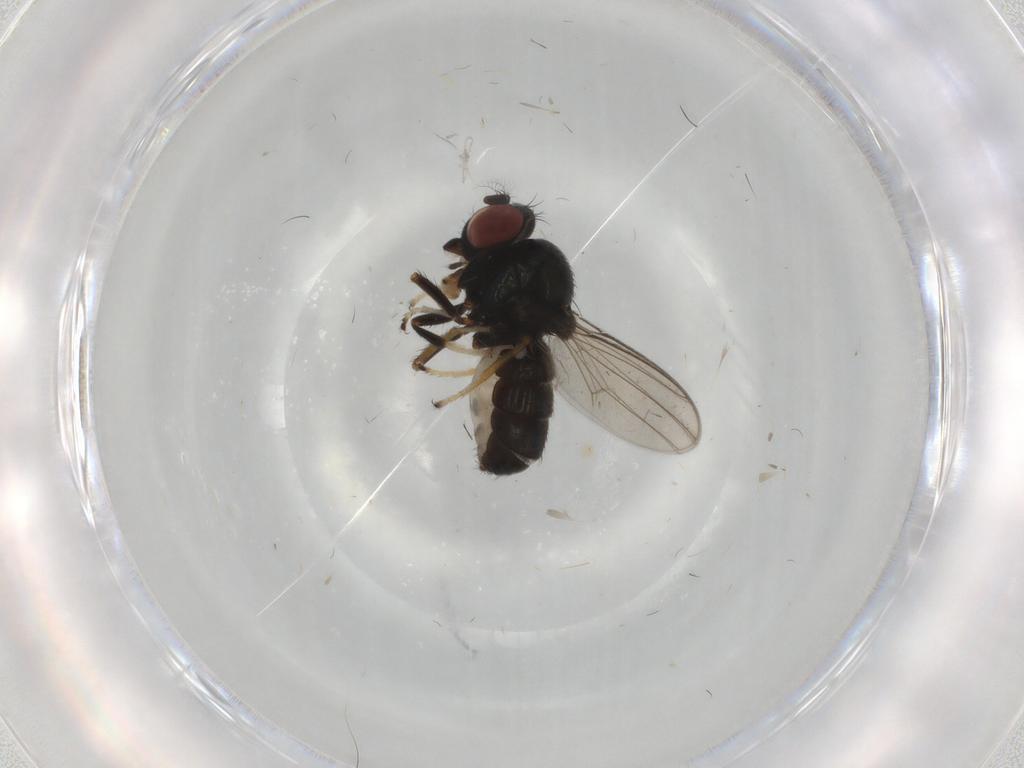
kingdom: Animalia
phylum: Arthropoda
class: Insecta
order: Diptera
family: Ephydridae
